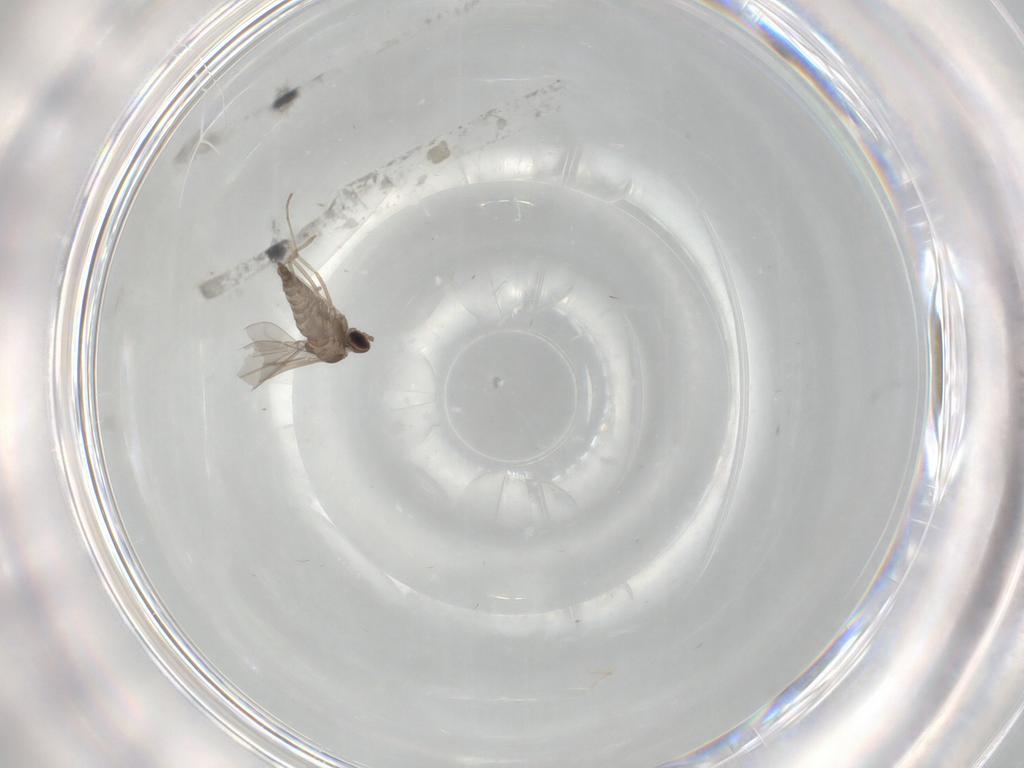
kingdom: Animalia
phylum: Arthropoda
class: Insecta
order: Diptera
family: Cecidomyiidae
